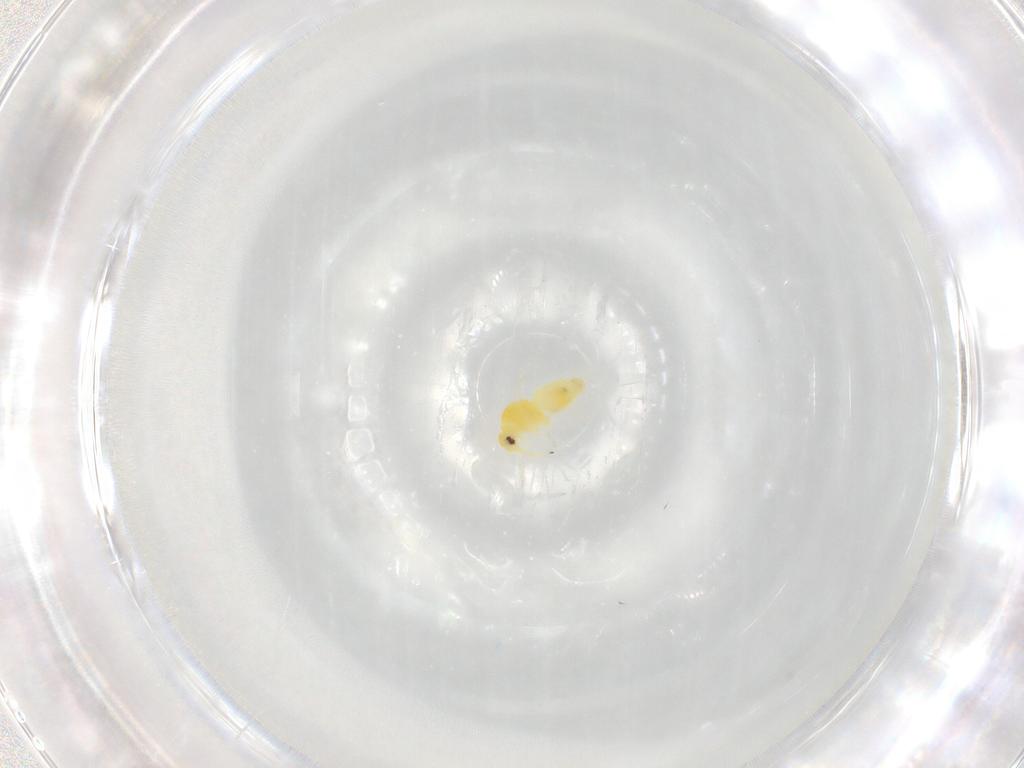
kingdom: Animalia
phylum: Arthropoda
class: Insecta
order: Hemiptera
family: Aleyrodidae
